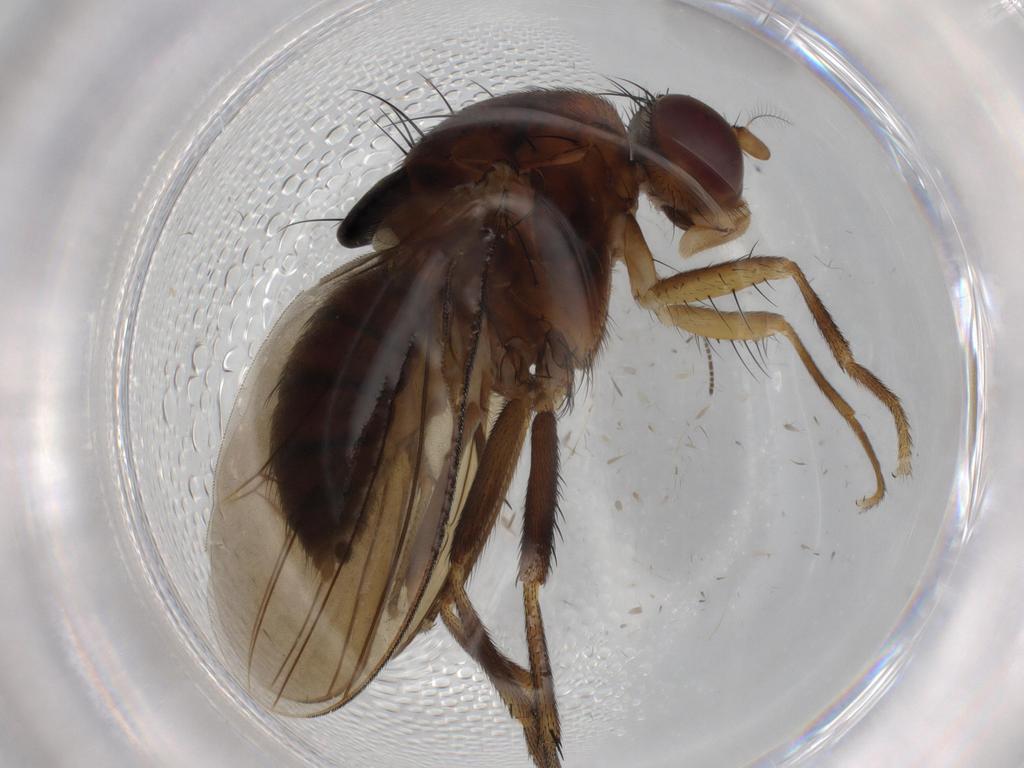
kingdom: Animalia
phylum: Arthropoda
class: Insecta
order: Diptera
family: Sciaridae
